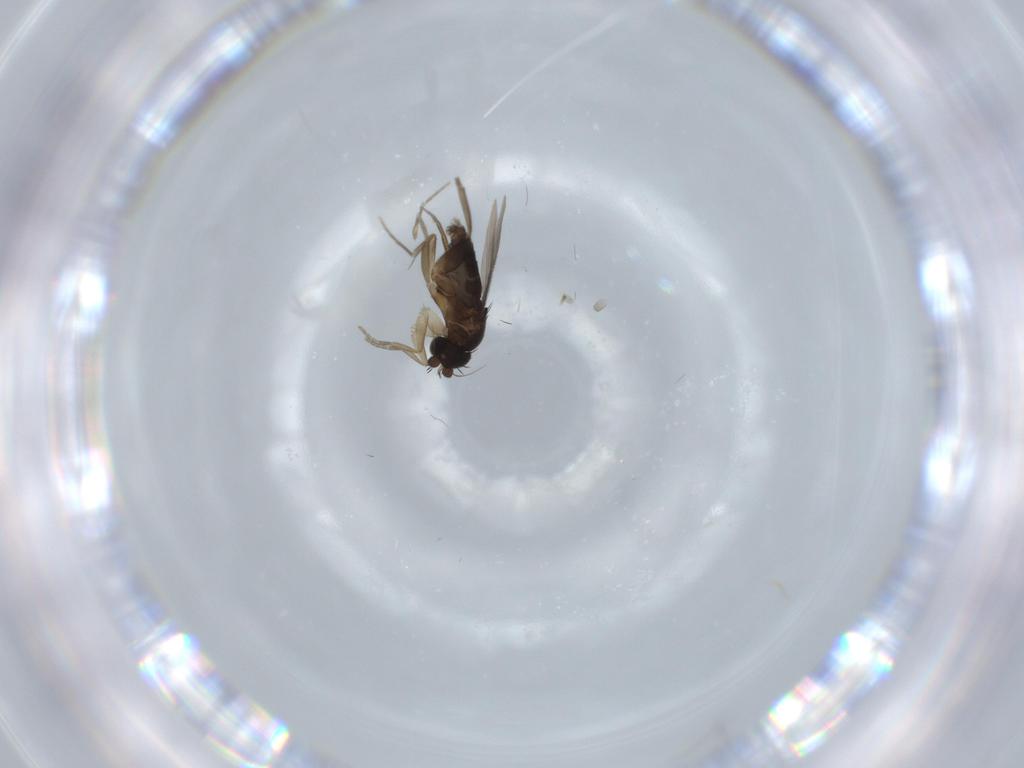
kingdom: Animalia
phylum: Arthropoda
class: Insecta
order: Diptera
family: Phoridae
